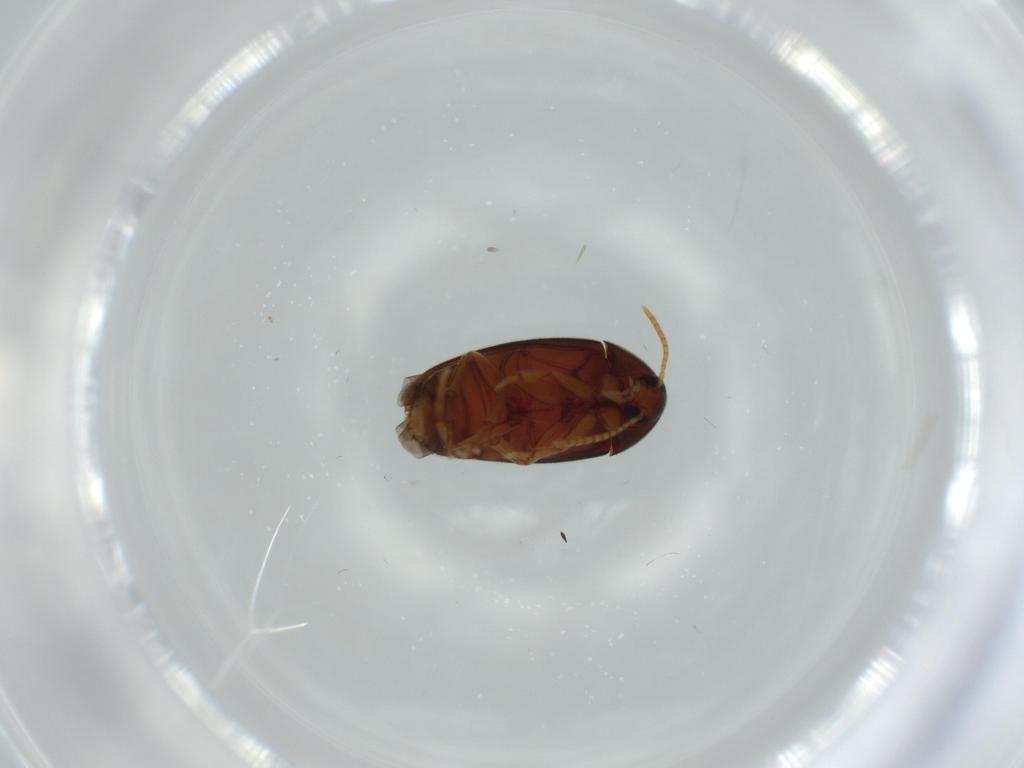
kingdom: Animalia
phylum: Arthropoda
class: Insecta
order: Coleoptera
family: Scraptiidae
